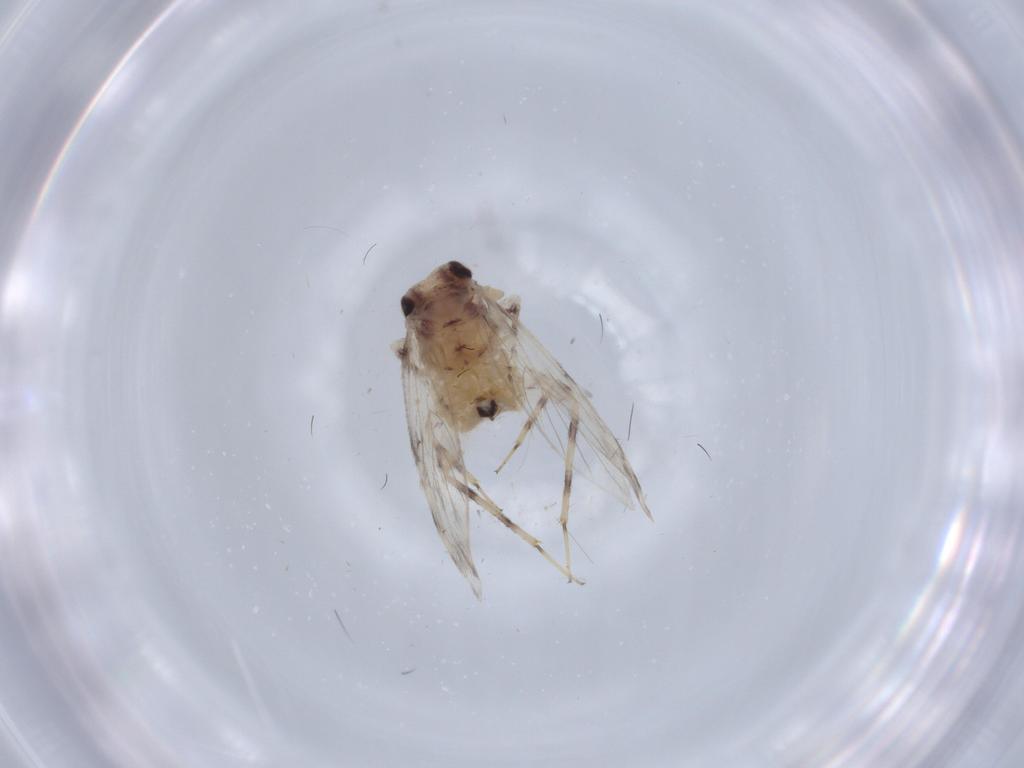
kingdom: Animalia
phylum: Arthropoda
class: Insecta
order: Psocodea
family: Lepidopsocidae
